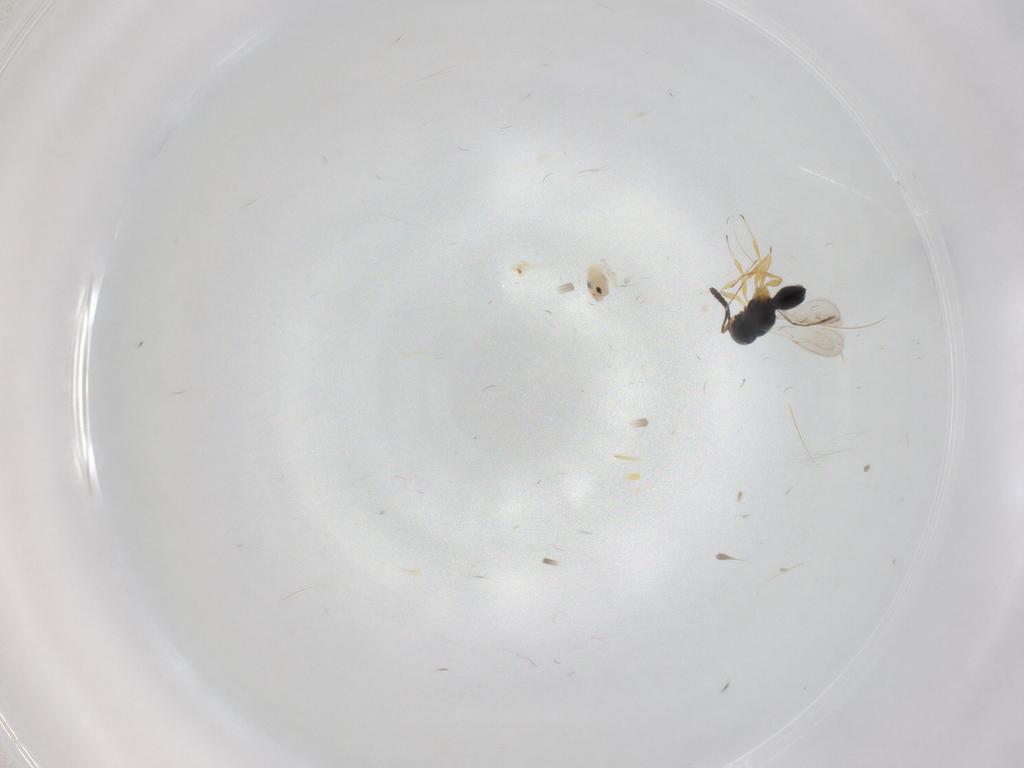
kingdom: Animalia
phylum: Arthropoda
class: Insecta
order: Hymenoptera
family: Scelionidae
